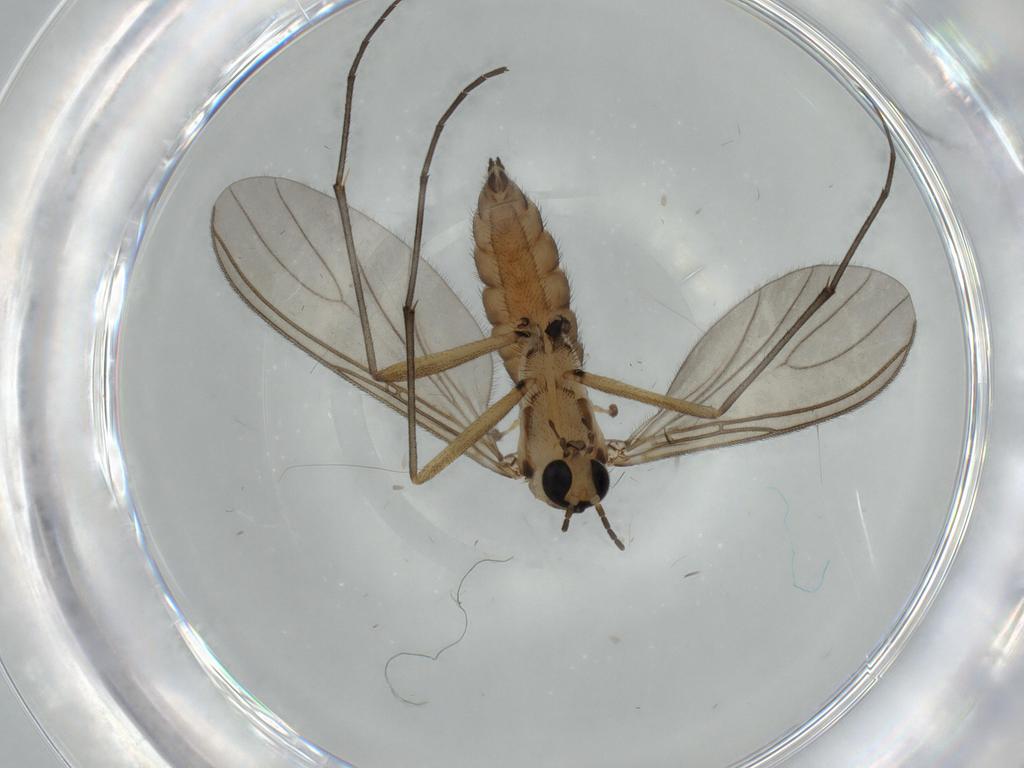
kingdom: Animalia
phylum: Arthropoda
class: Insecta
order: Diptera
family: Sciaridae
